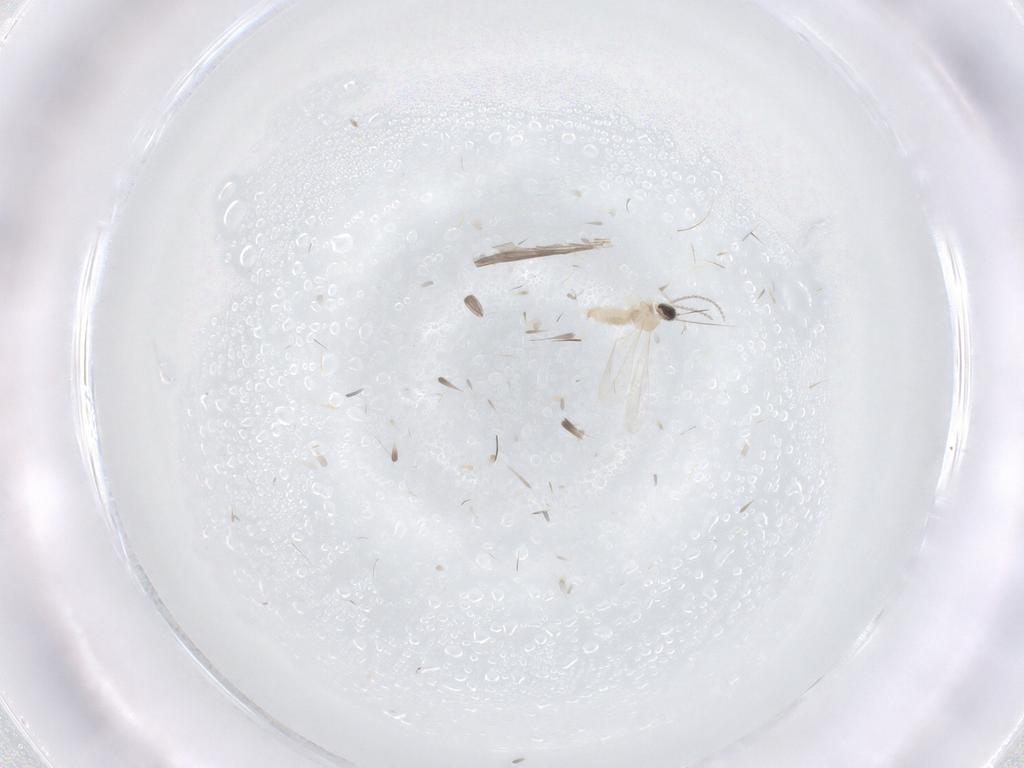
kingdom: Animalia
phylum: Arthropoda
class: Insecta
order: Diptera
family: Cecidomyiidae
